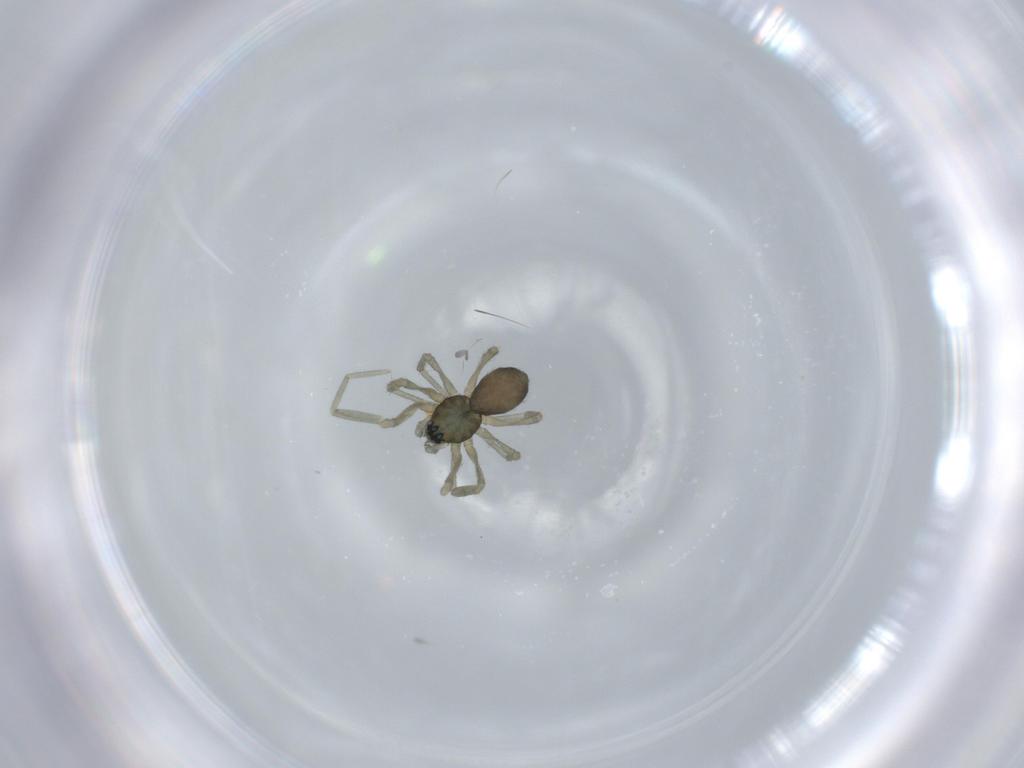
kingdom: Animalia
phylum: Arthropoda
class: Arachnida
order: Araneae
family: Linyphiidae
